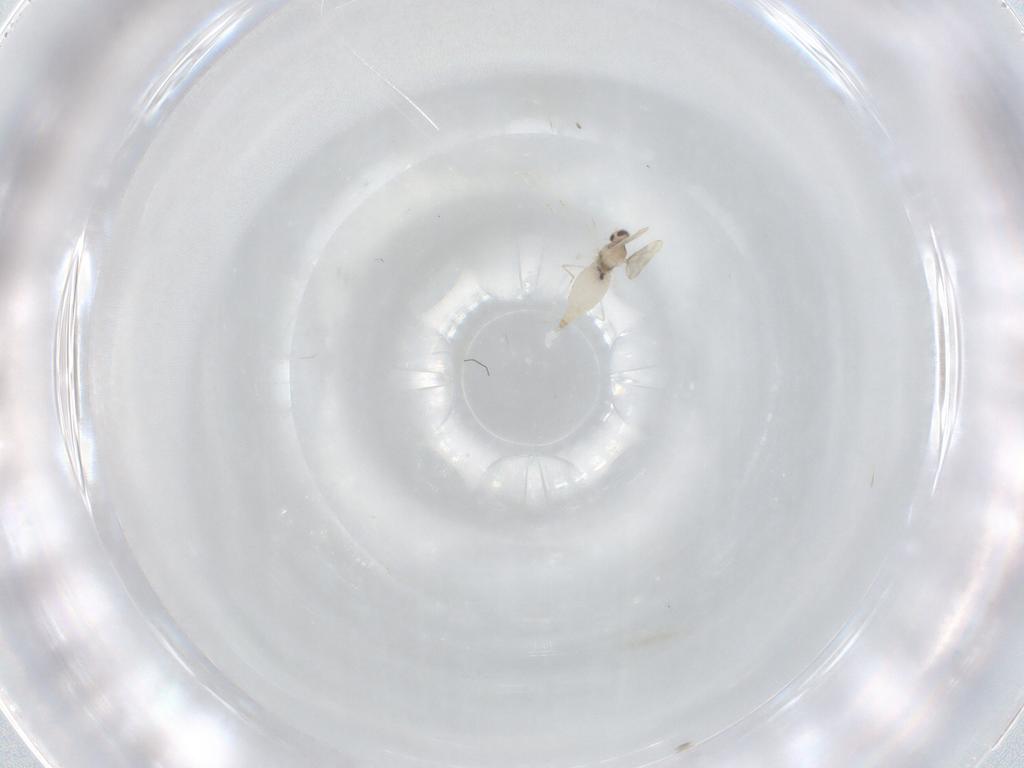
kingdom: Animalia
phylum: Arthropoda
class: Insecta
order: Diptera
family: Cecidomyiidae
